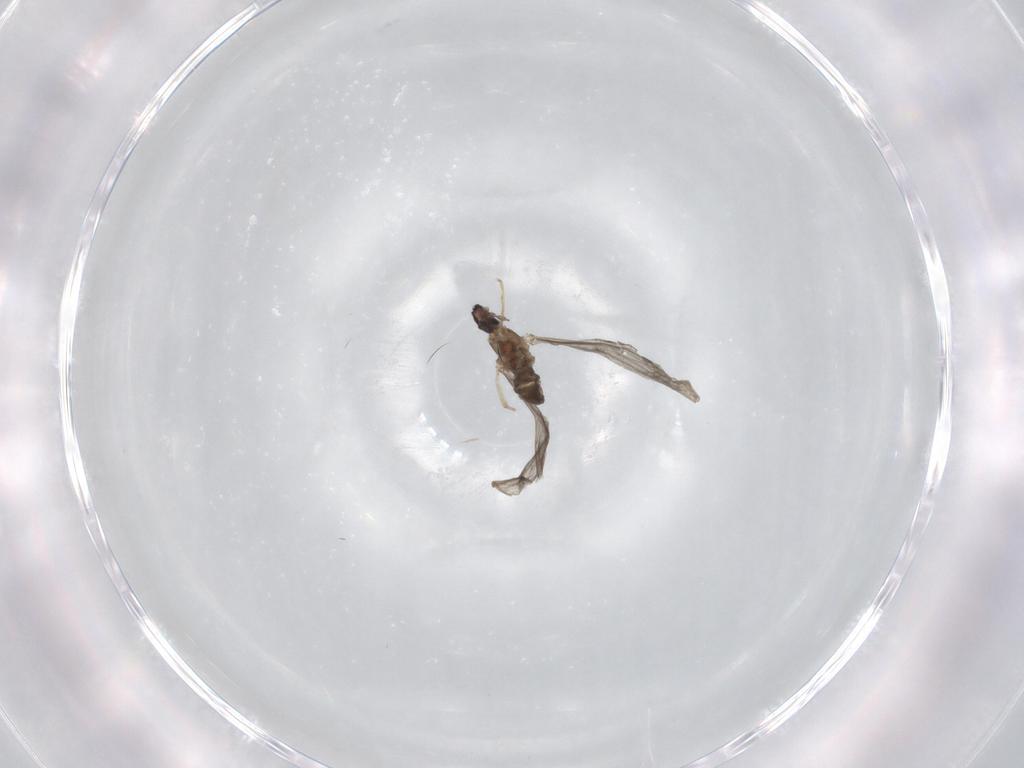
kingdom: Animalia
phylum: Arthropoda
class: Insecta
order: Diptera
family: Cecidomyiidae
